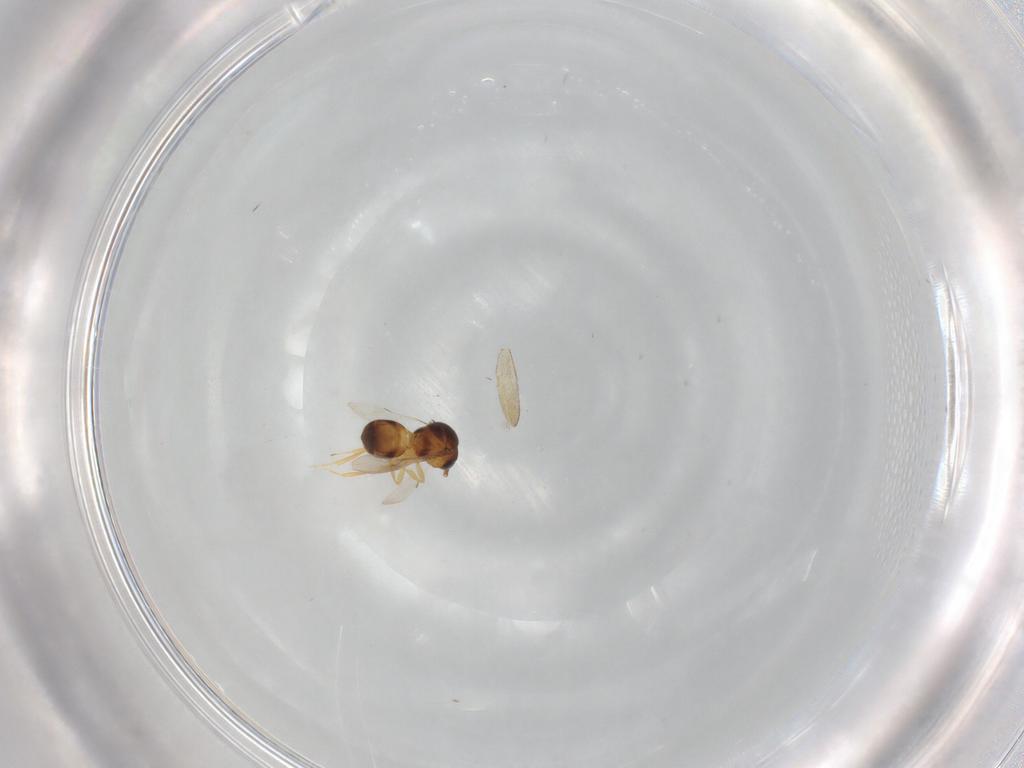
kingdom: Animalia
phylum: Arthropoda
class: Insecta
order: Hymenoptera
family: Scelionidae
